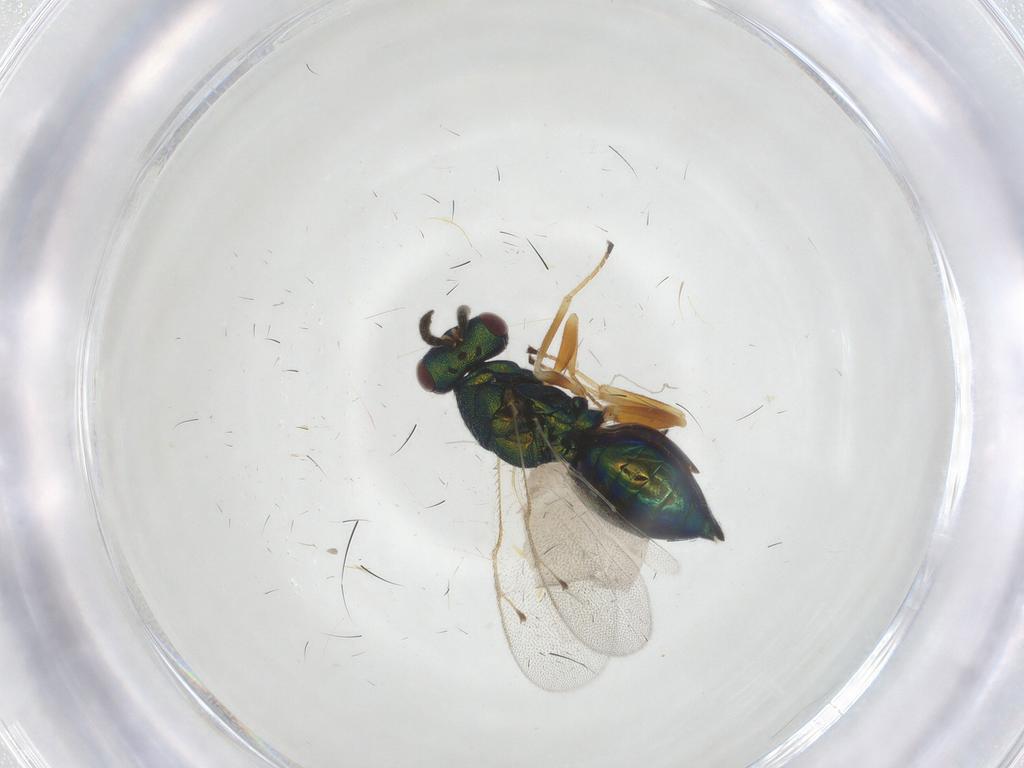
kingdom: Animalia
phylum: Arthropoda
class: Insecta
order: Hymenoptera
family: Pteromalidae
